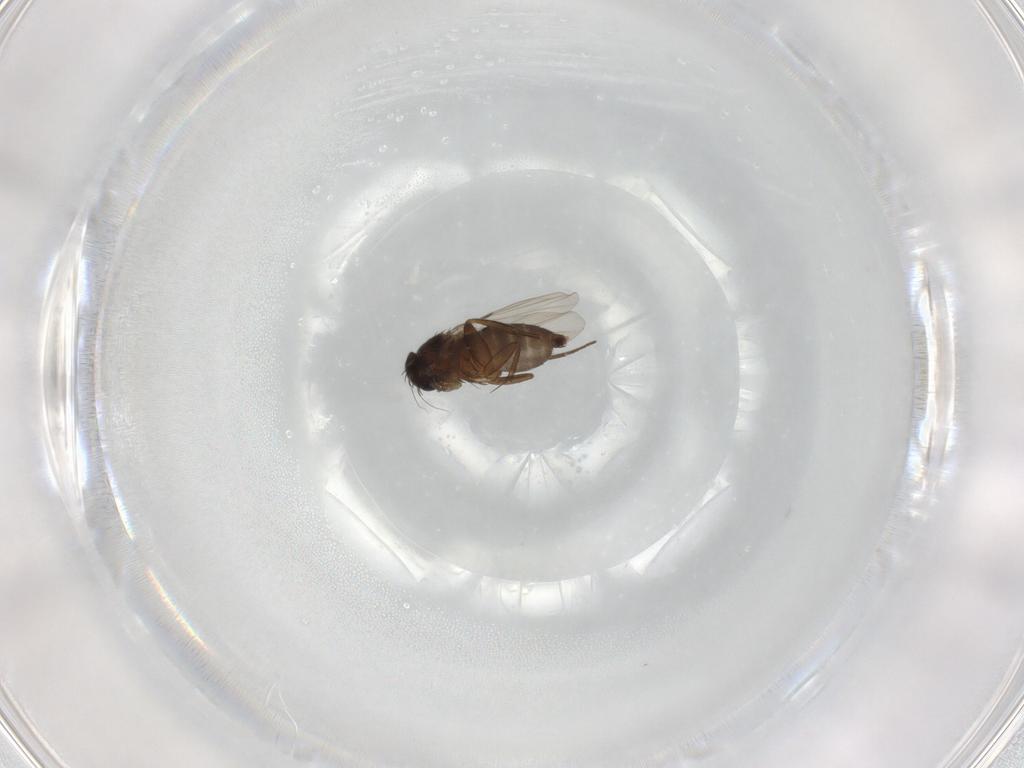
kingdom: Animalia
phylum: Arthropoda
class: Insecta
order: Diptera
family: Phoridae
